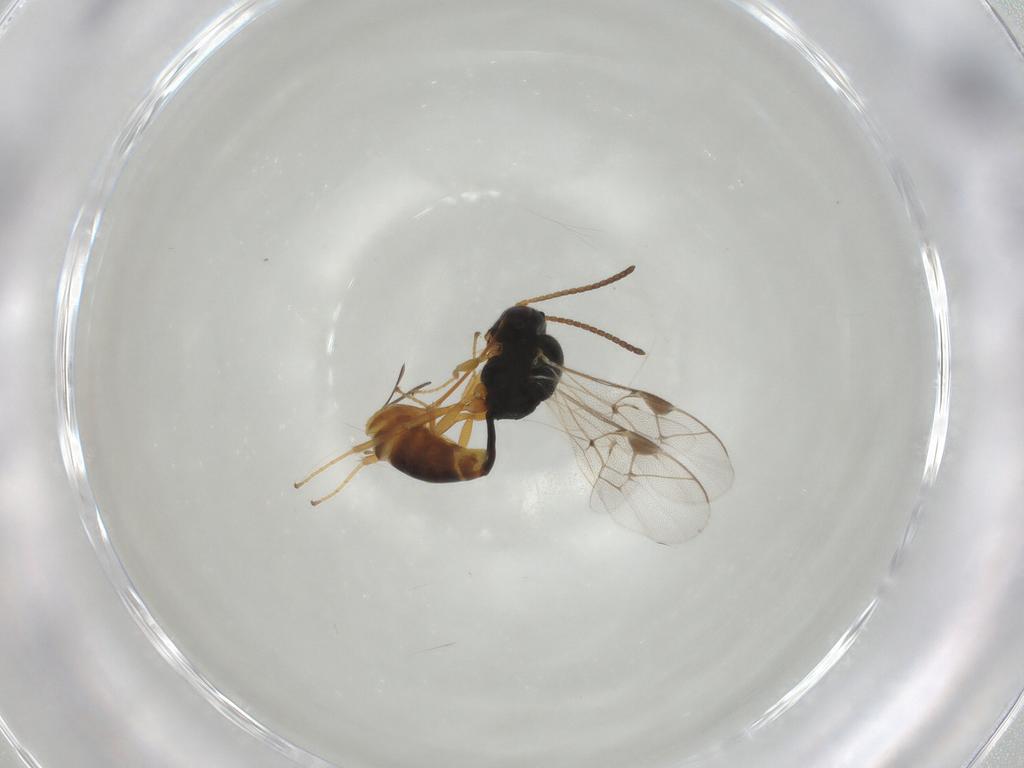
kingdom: Animalia
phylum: Arthropoda
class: Insecta
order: Hymenoptera
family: Ichneumonidae
